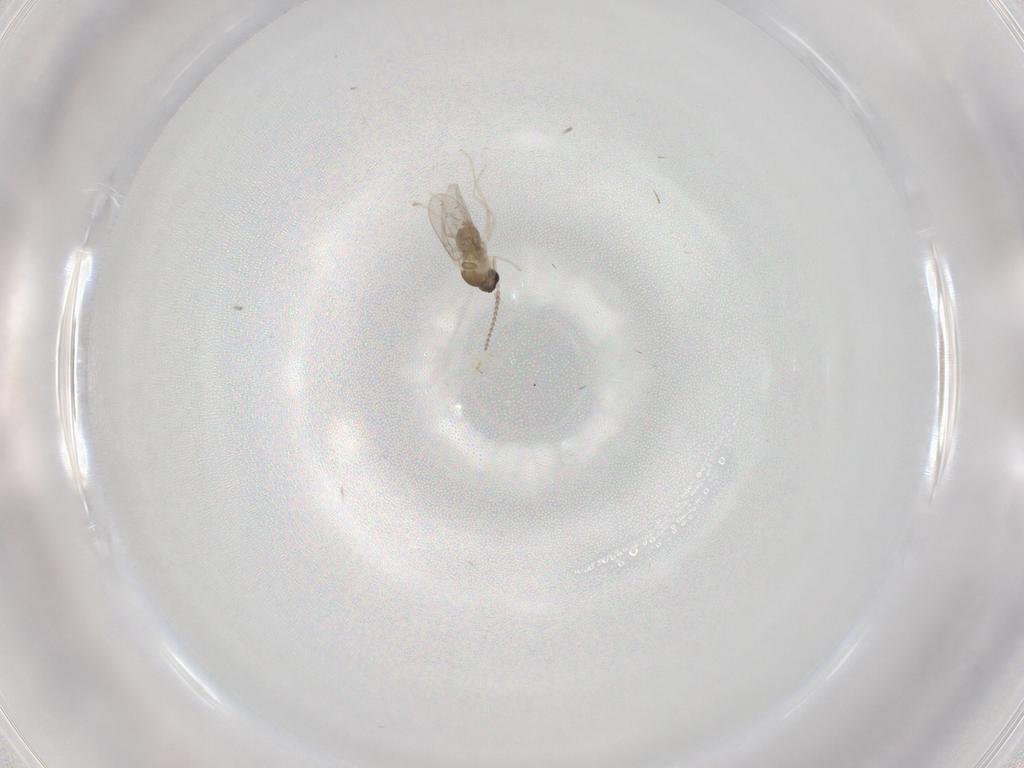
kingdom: Animalia
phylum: Arthropoda
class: Insecta
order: Diptera
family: Cecidomyiidae
